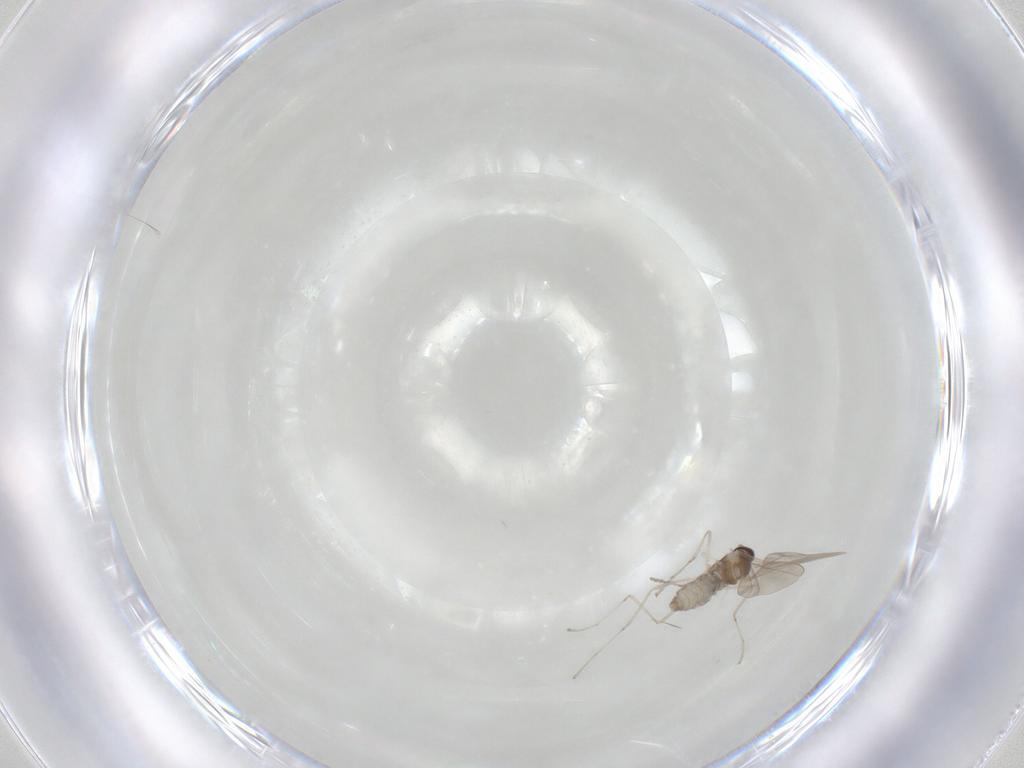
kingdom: Animalia
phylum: Arthropoda
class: Insecta
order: Diptera
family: Cecidomyiidae
